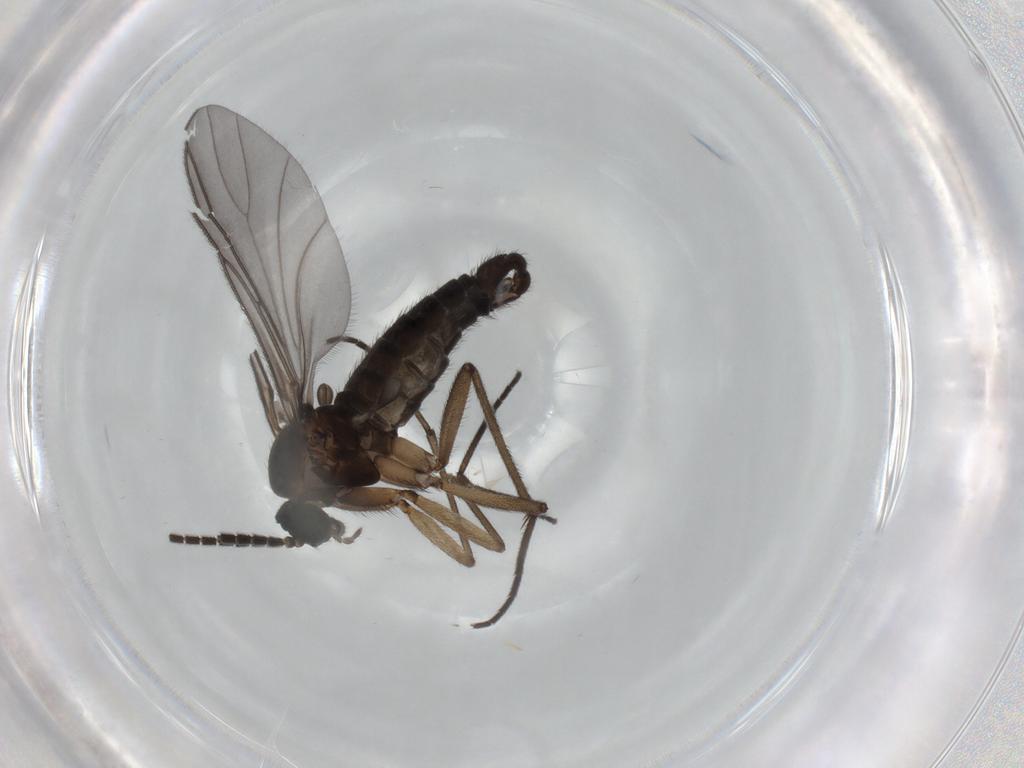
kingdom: Animalia
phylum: Arthropoda
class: Insecta
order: Diptera
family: Sciaridae
